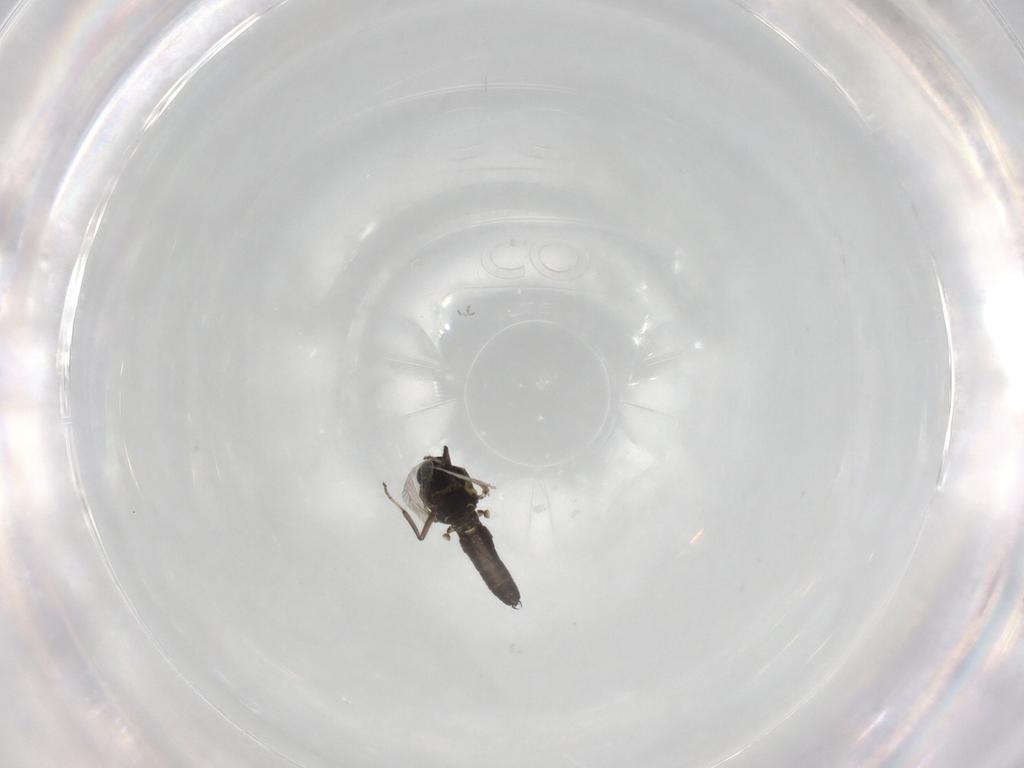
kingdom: Animalia
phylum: Arthropoda
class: Insecta
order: Diptera
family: Ceratopogonidae
